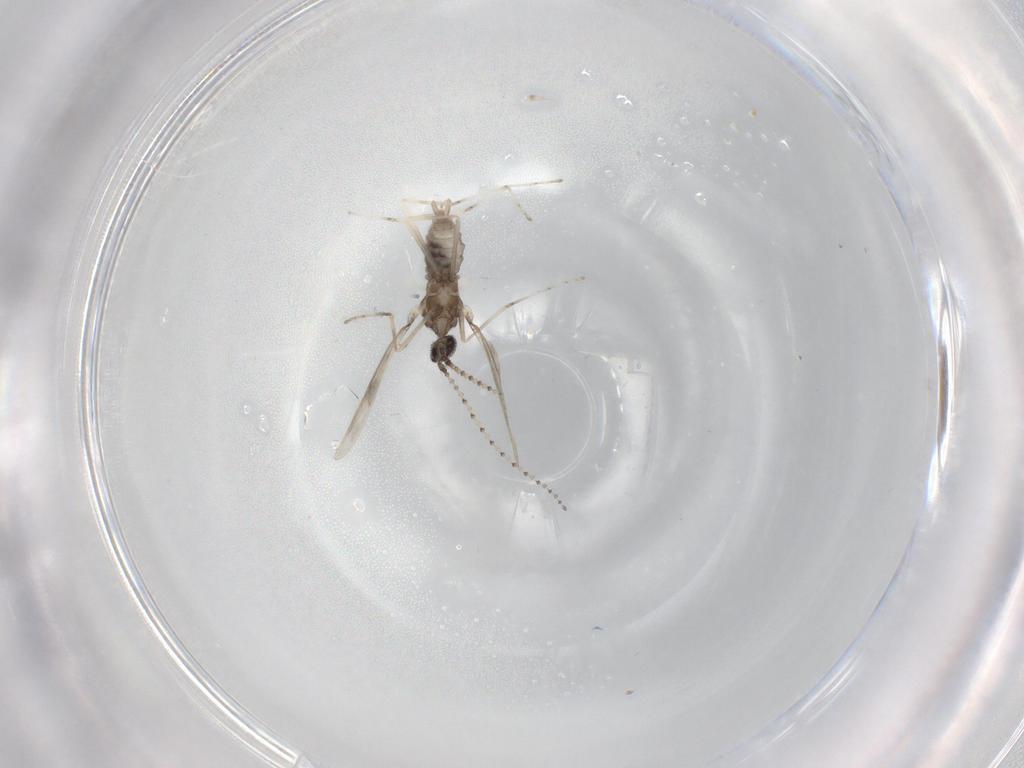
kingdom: Animalia
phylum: Arthropoda
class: Insecta
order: Diptera
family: Cecidomyiidae
